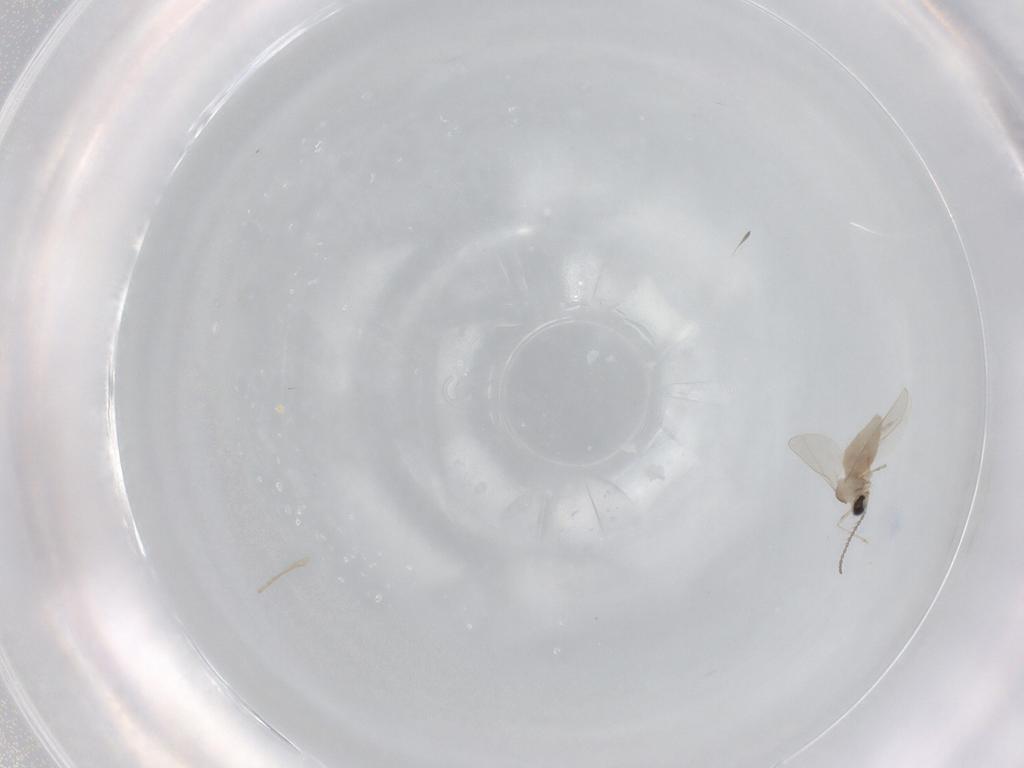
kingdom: Animalia
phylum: Arthropoda
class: Insecta
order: Diptera
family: Cecidomyiidae
